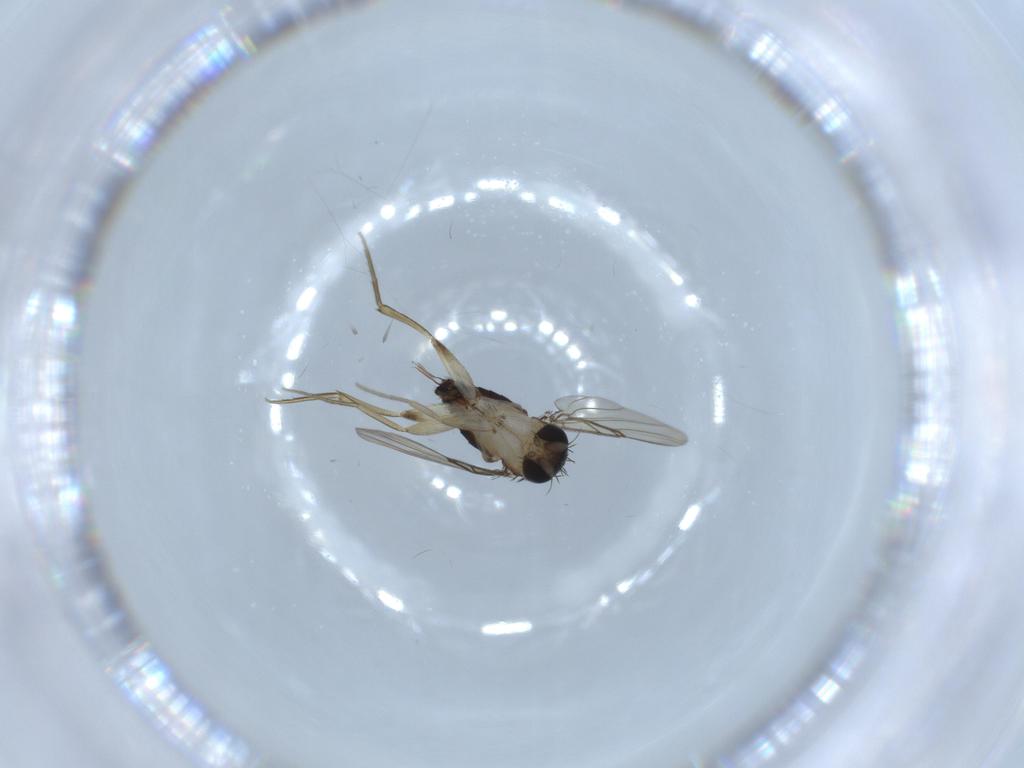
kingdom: Animalia
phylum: Arthropoda
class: Insecta
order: Diptera
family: Phoridae
